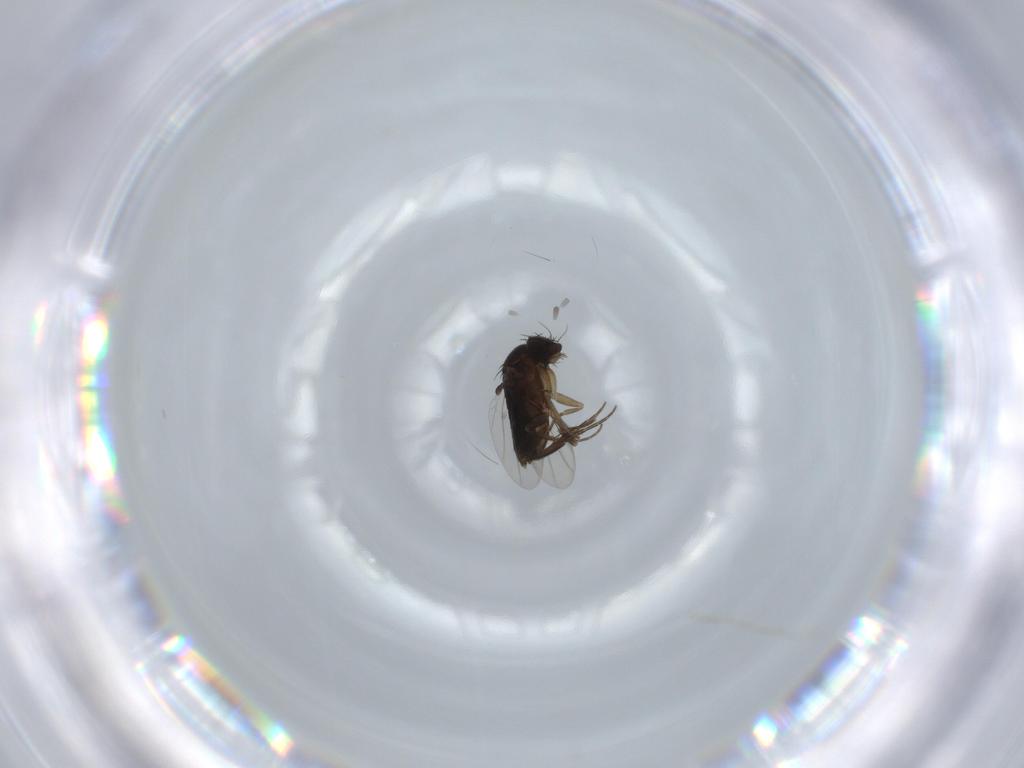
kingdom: Animalia
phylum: Arthropoda
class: Insecta
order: Diptera
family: Phoridae
